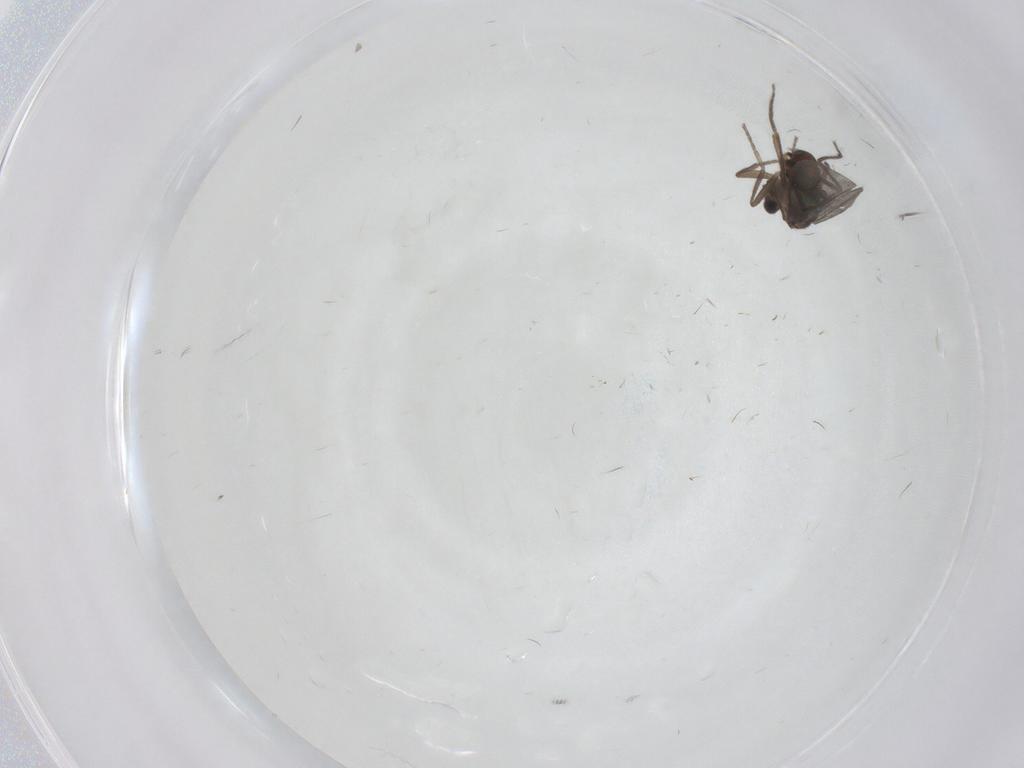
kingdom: Animalia
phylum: Arthropoda
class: Insecta
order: Diptera
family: Phoridae
